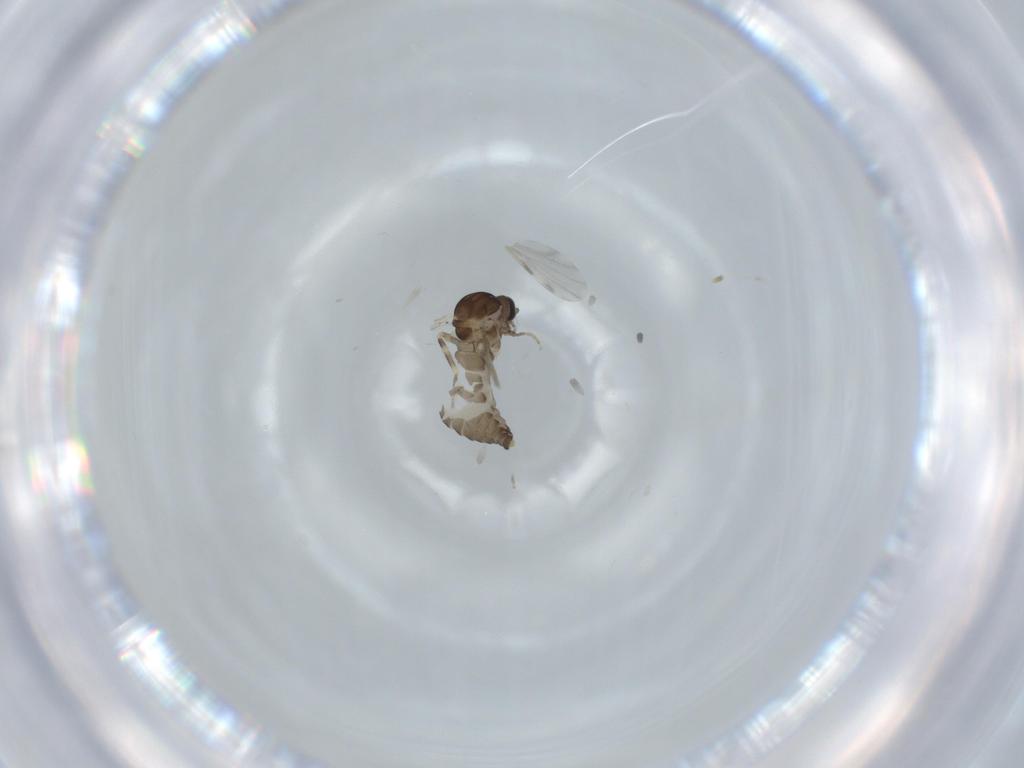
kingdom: Animalia
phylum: Arthropoda
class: Insecta
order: Diptera
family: Ceratopogonidae
